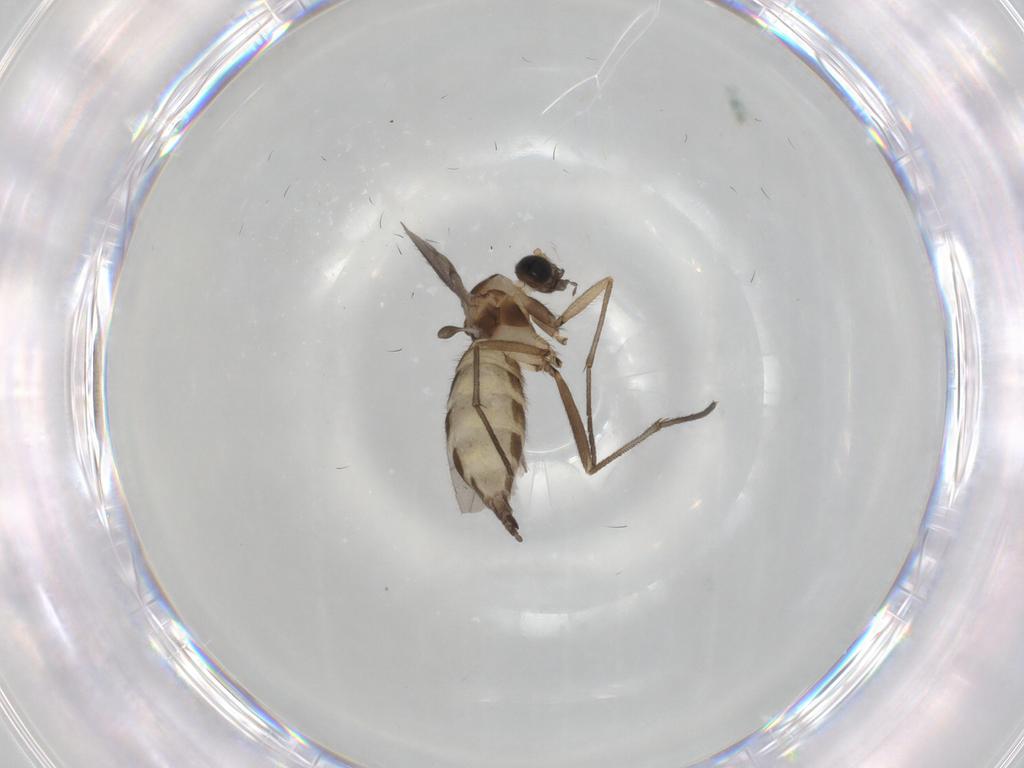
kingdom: Animalia
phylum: Arthropoda
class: Insecta
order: Diptera
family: Sciaridae
